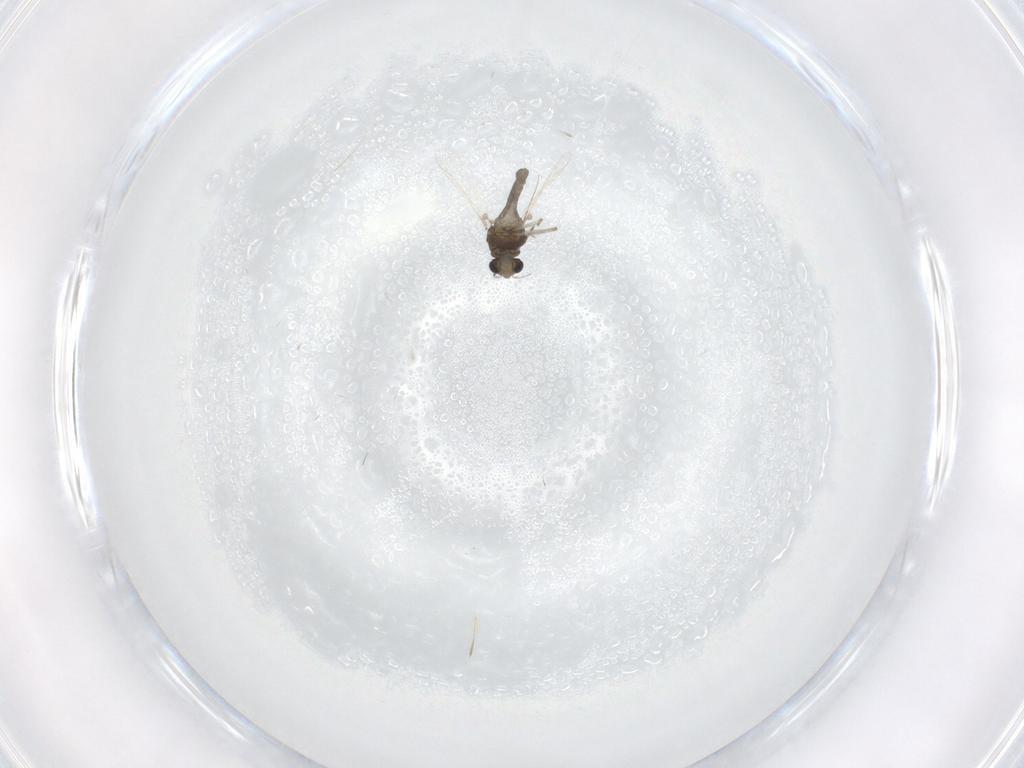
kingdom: Animalia
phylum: Arthropoda
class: Insecta
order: Diptera
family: Chironomidae
